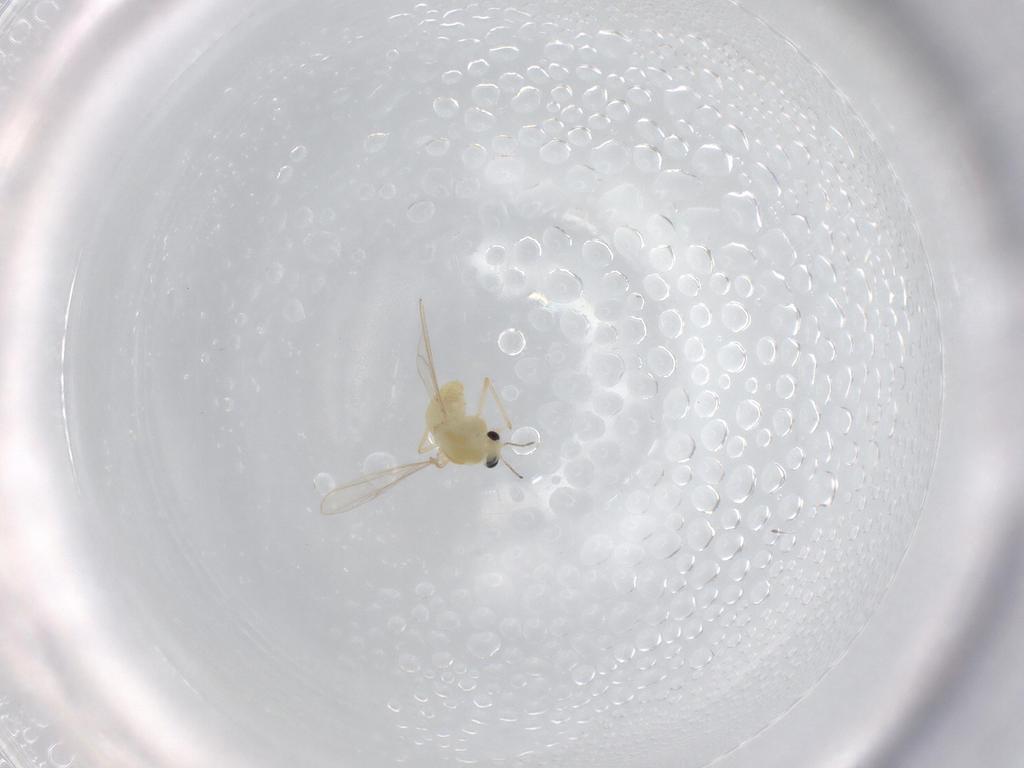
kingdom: Animalia
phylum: Arthropoda
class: Insecta
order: Diptera
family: Chironomidae
